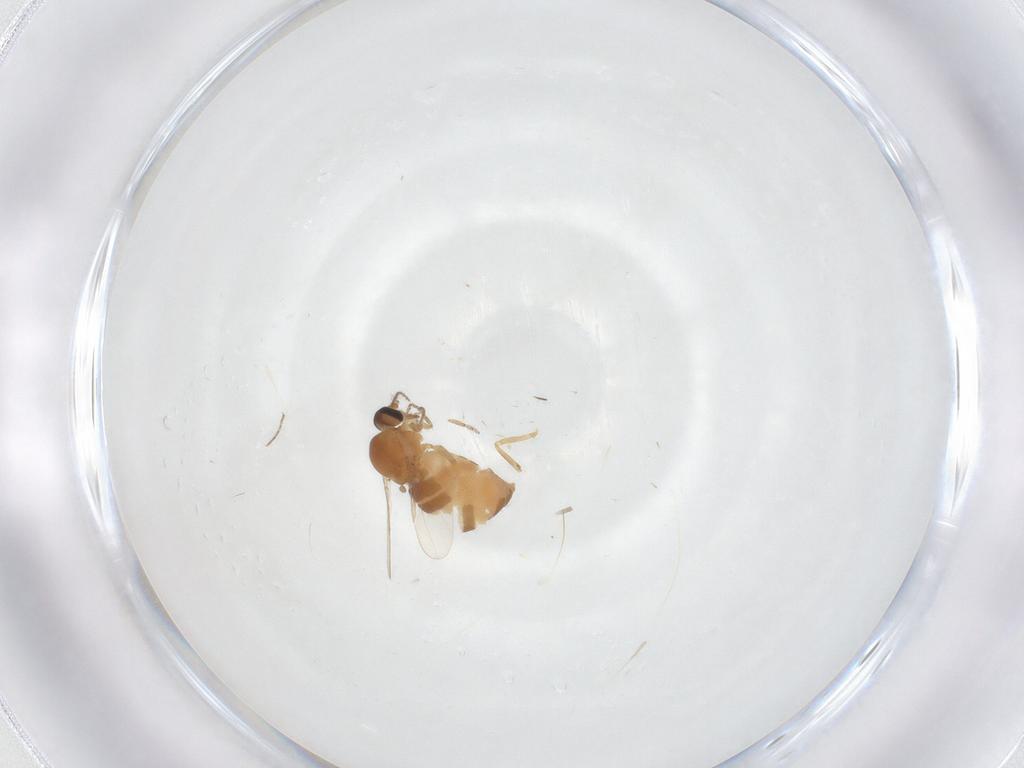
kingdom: Animalia
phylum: Arthropoda
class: Insecta
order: Diptera
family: Ceratopogonidae
